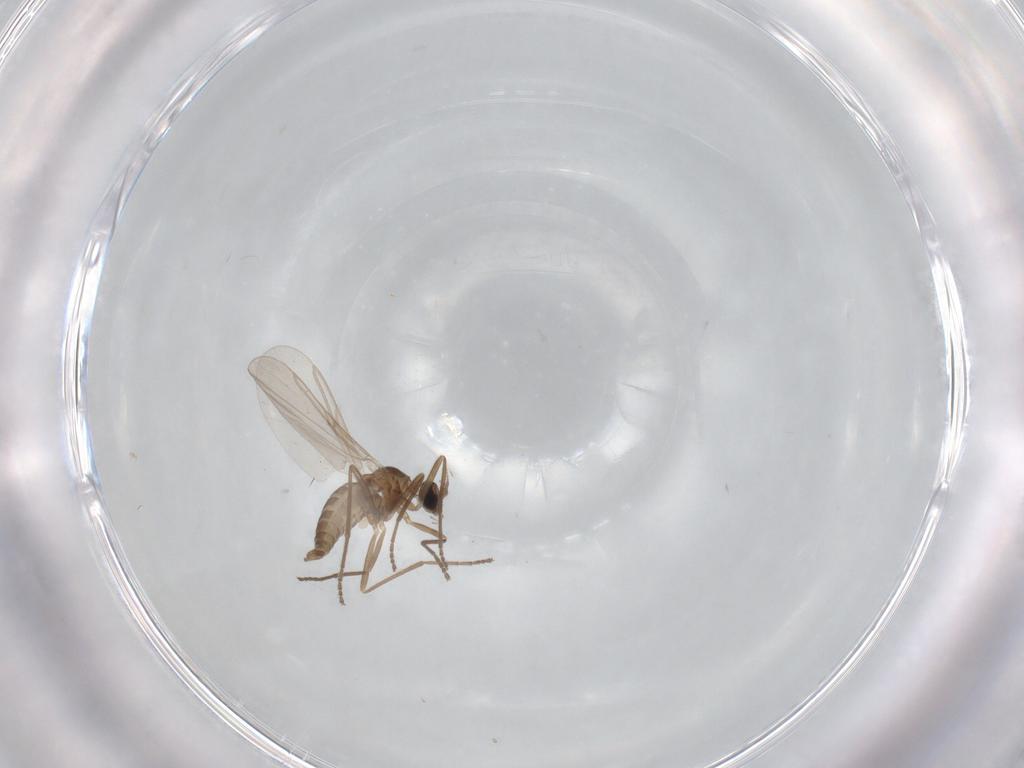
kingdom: Animalia
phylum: Arthropoda
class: Insecta
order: Diptera
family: Cecidomyiidae
